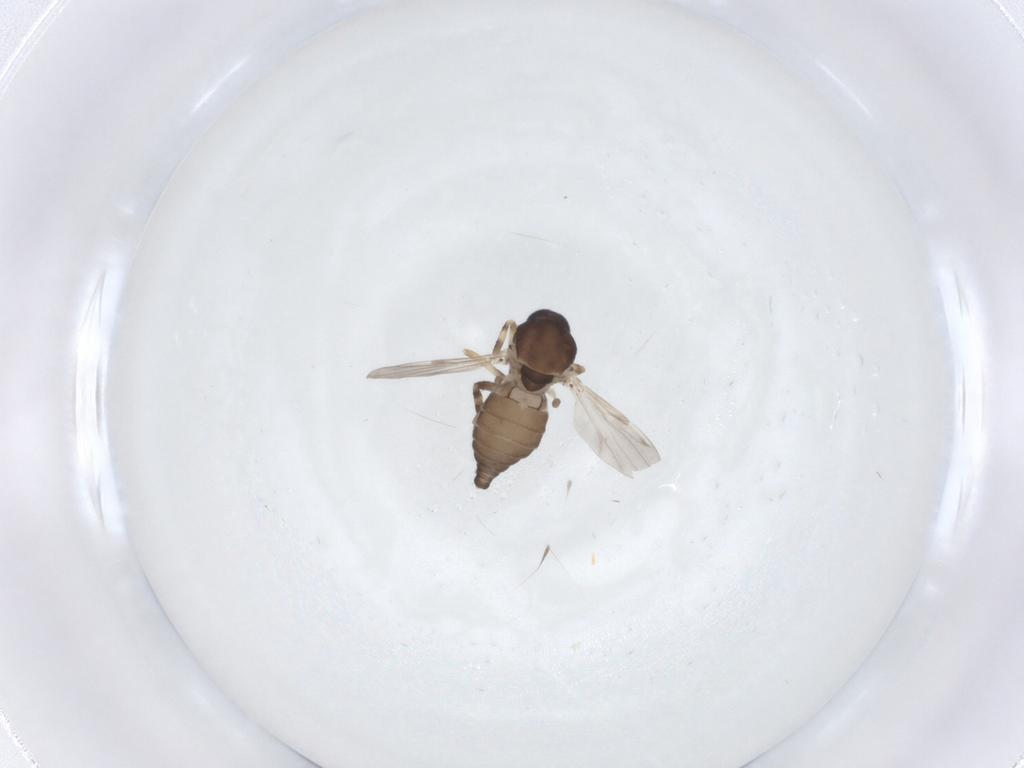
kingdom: Animalia
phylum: Arthropoda
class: Insecta
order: Diptera
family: Ceratopogonidae
